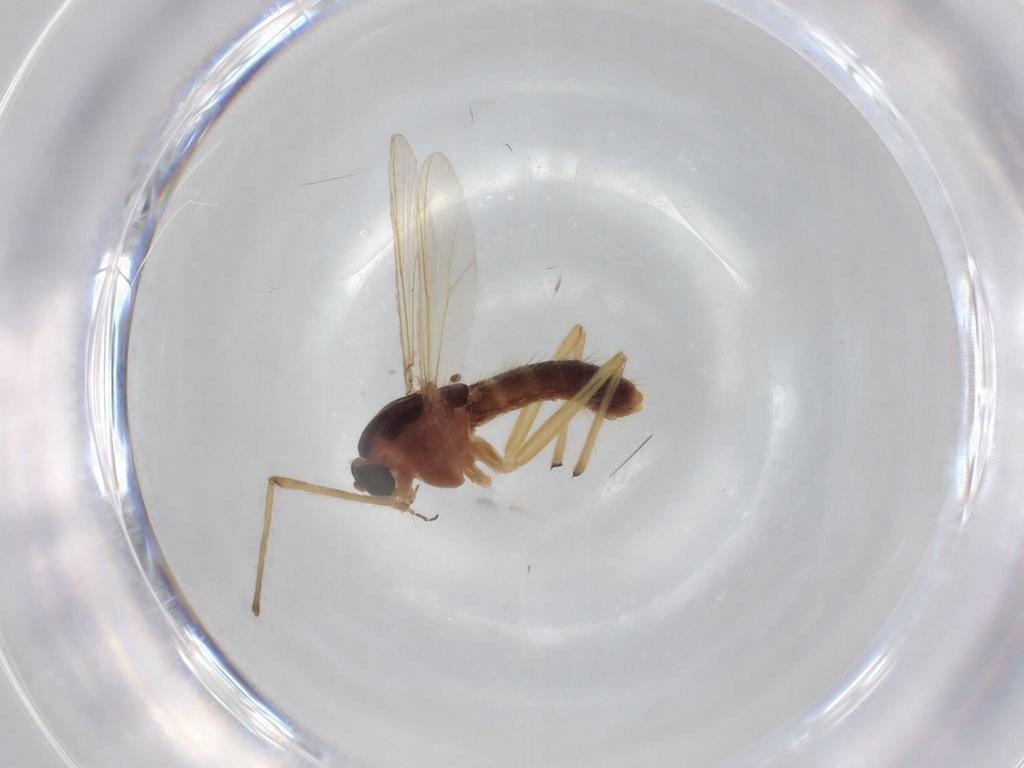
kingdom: Animalia
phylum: Arthropoda
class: Insecta
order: Diptera
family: Chironomidae
